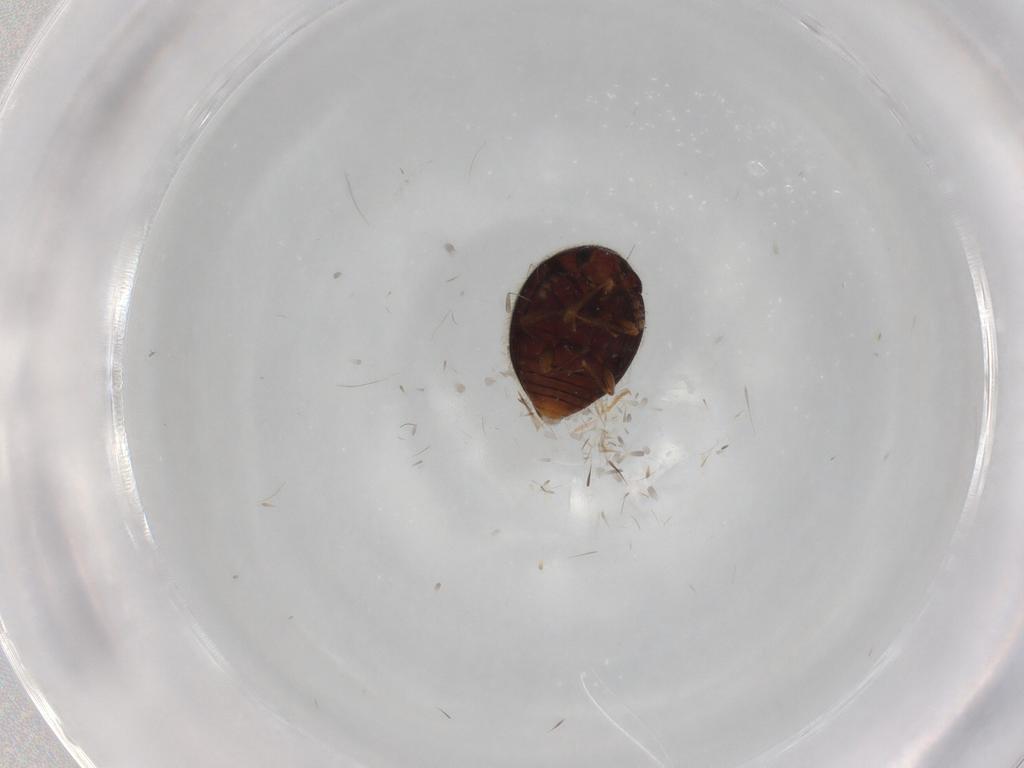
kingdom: Animalia
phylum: Arthropoda
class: Insecta
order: Coleoptera
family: Anamorphidae
